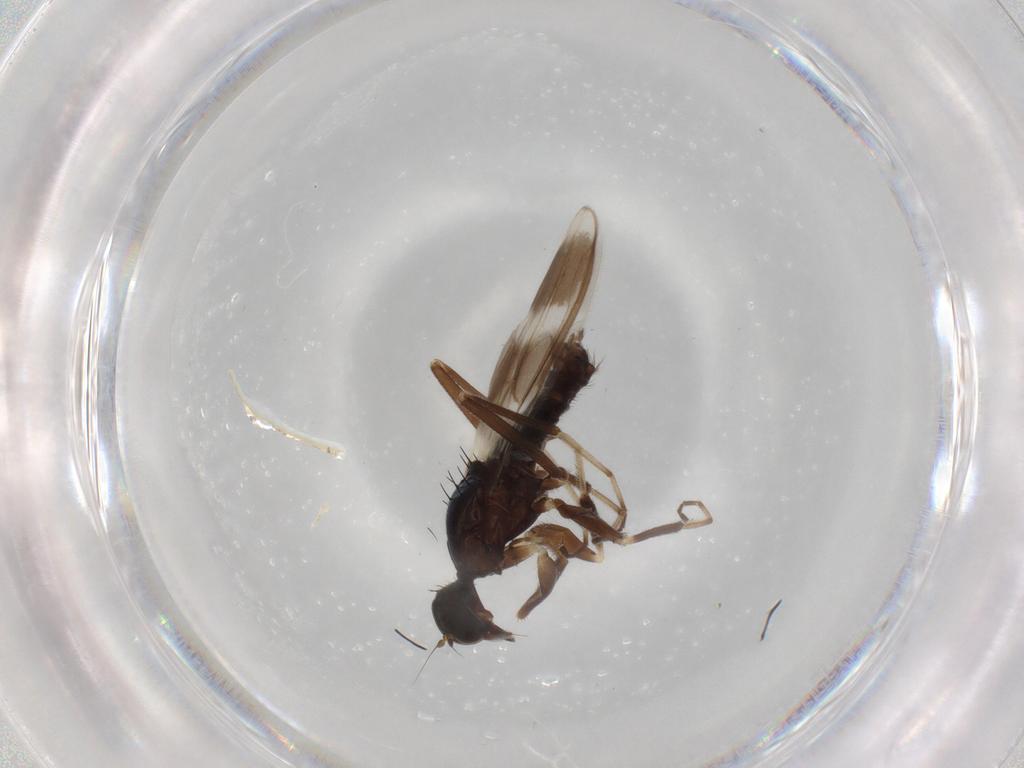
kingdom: Animalia
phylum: Arthropoda
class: Insecta
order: Diptera
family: Hybotidae
